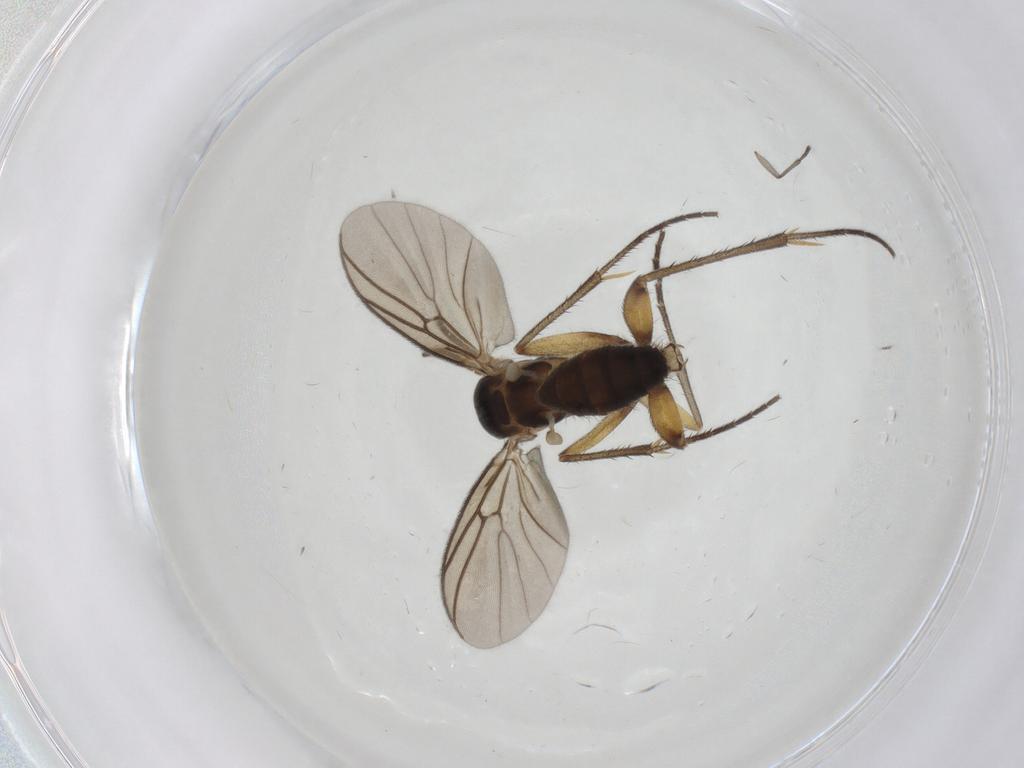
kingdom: Animalia
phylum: Arthropoda
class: Insecta
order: Diptera
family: Mycetophilidae
